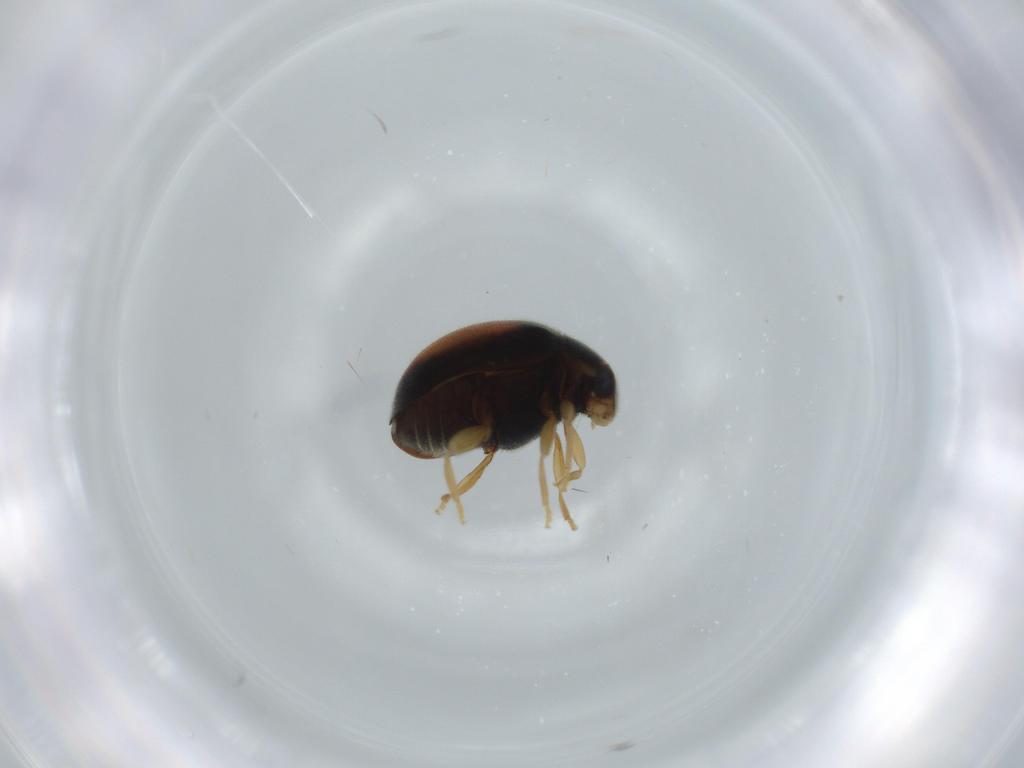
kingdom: Animalia
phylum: Arthropoda
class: Insecta
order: Coleoptera
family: Coccinellidae
